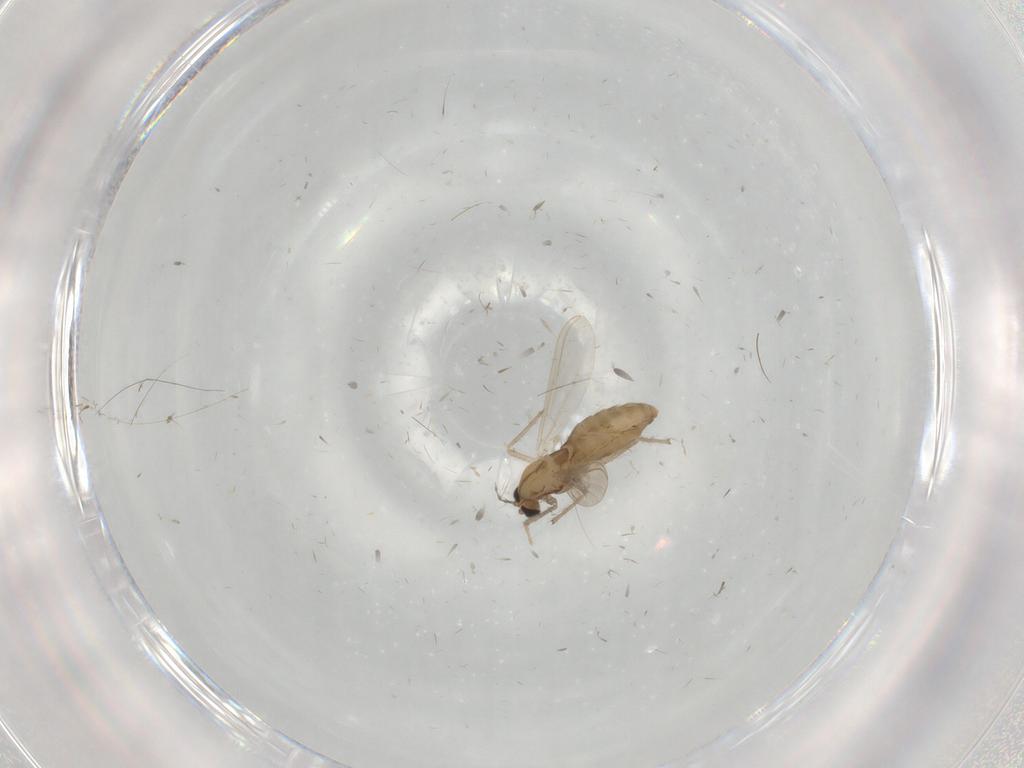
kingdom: Animalia
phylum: Arthropoda
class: Insecta
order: Diptera
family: Chironomidae
